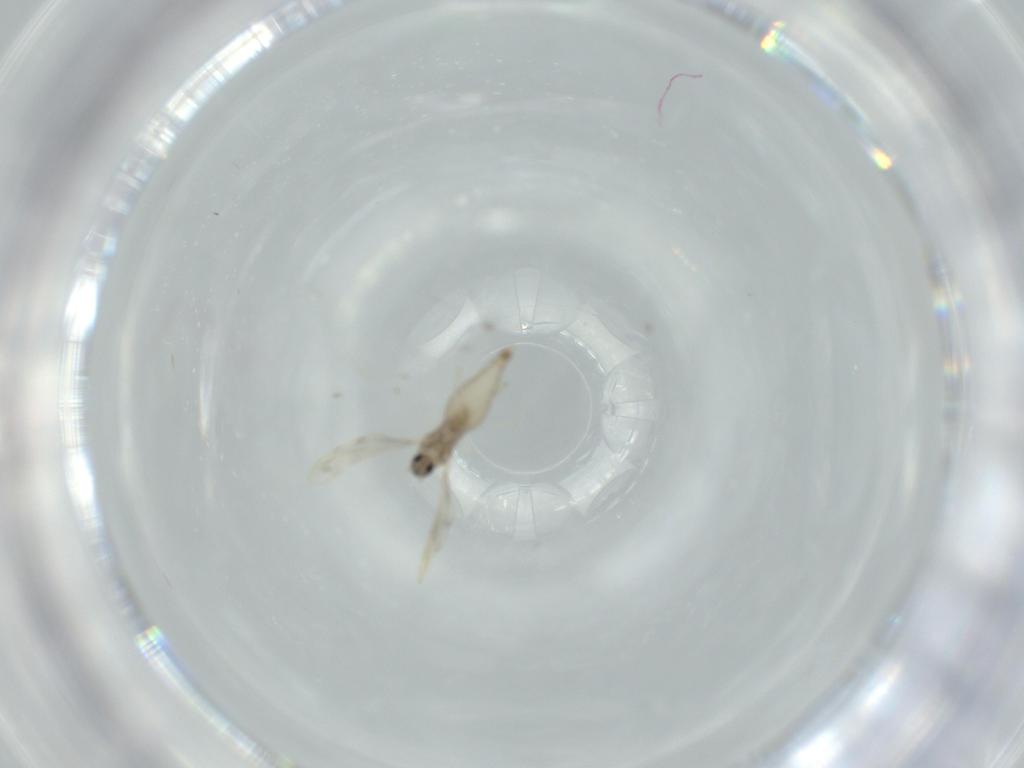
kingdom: Animalia
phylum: Arthropoda
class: Insecta
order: Diptera
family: Cecidomyiidae
